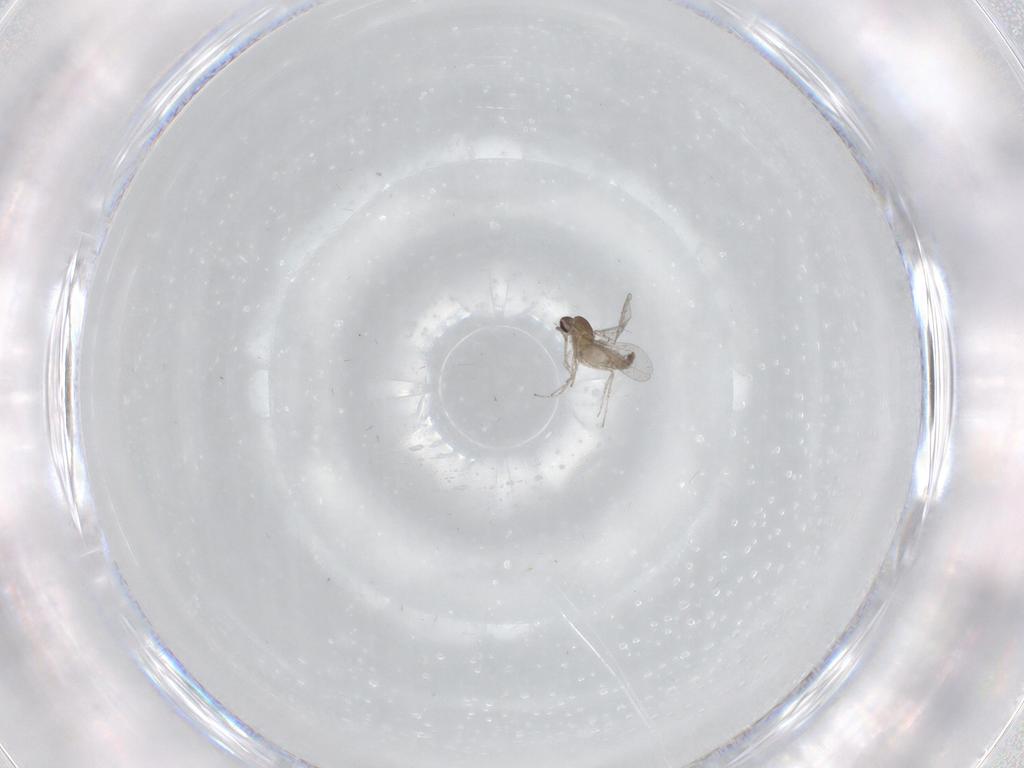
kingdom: Animalia
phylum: Arthropoda
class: Insecta
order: Diptera
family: Cecidomyiidae
